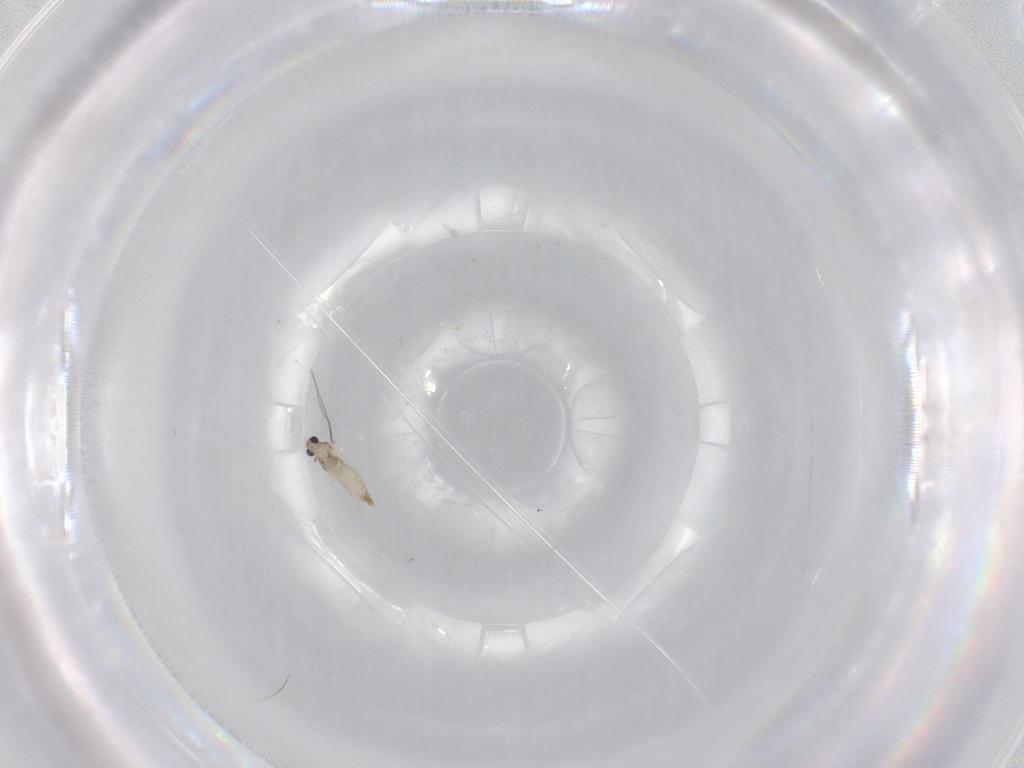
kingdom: Animalia
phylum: Arthropoda
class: Insecta
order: Diptera
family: Cecidomyiidae
